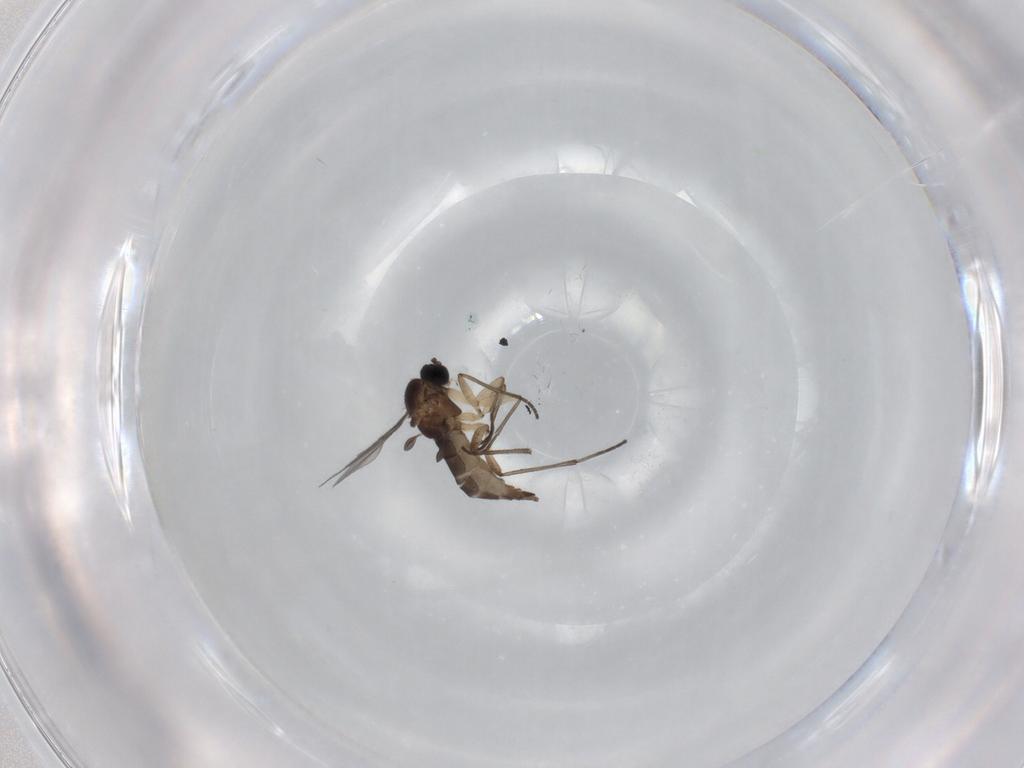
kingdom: Animalia
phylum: Arthropoda
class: Insecta
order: Diptera
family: Sciaridae
